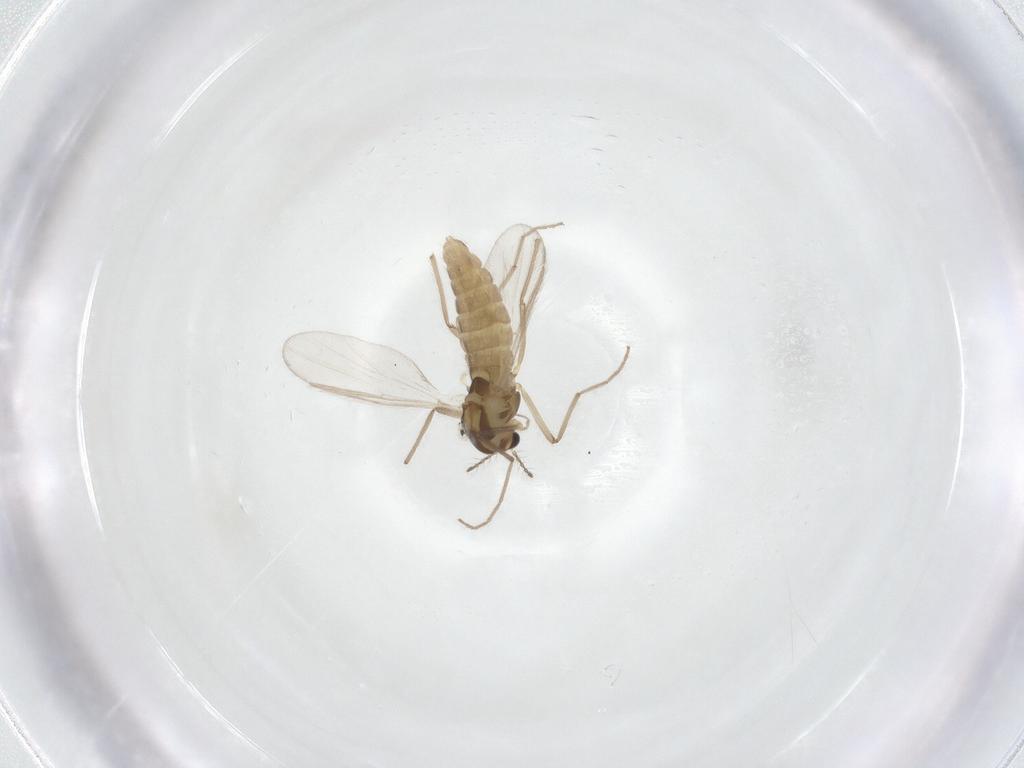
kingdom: Animalia
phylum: Arthropoda
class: Insecta
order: Diptera
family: Chironomidae
